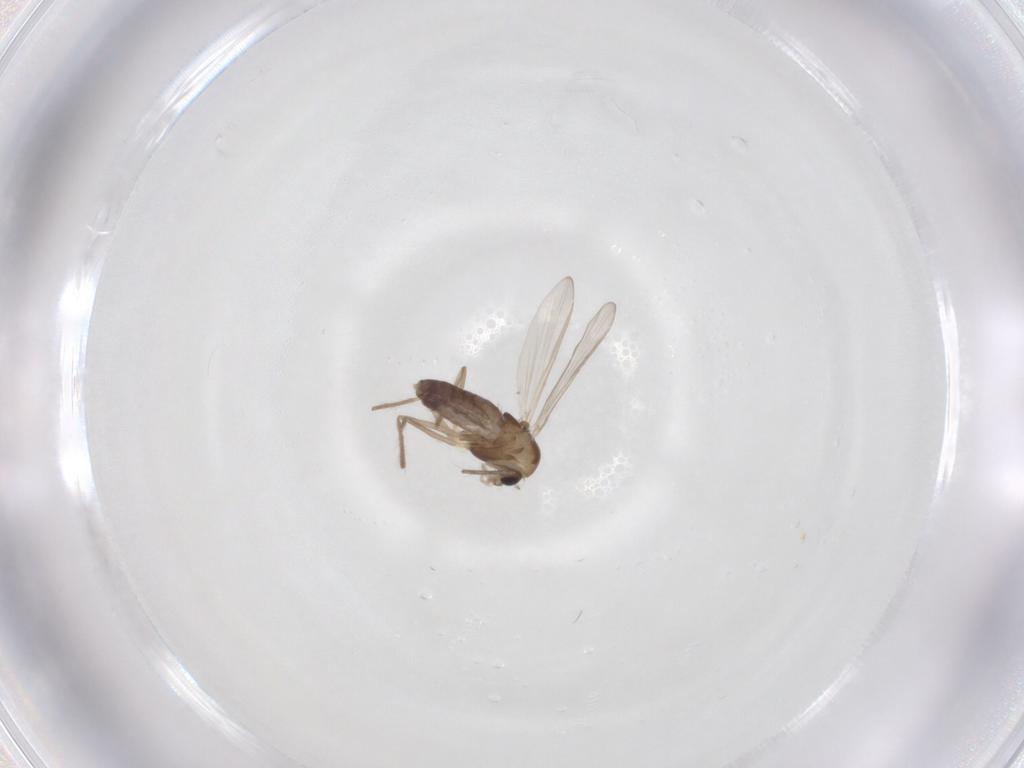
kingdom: Animalia
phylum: Arthropoda
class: Insecta
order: Diptera
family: Chironomidae
